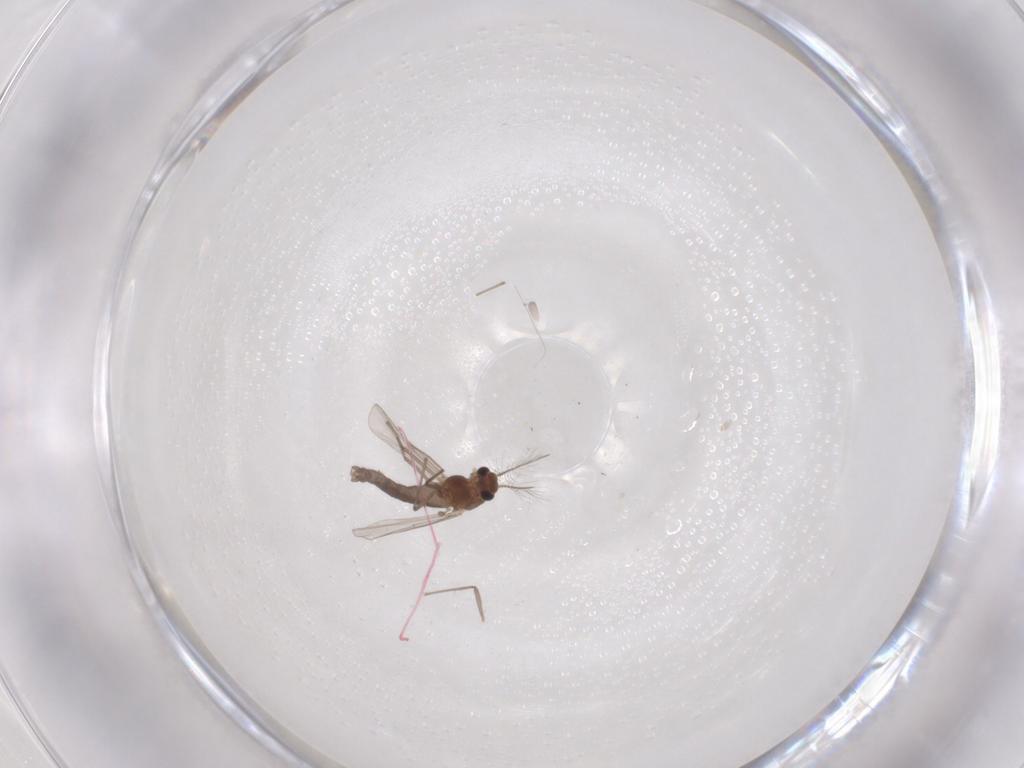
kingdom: Animalia
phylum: Arthropoda
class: Insecta
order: Diptera
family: Chironomidae
